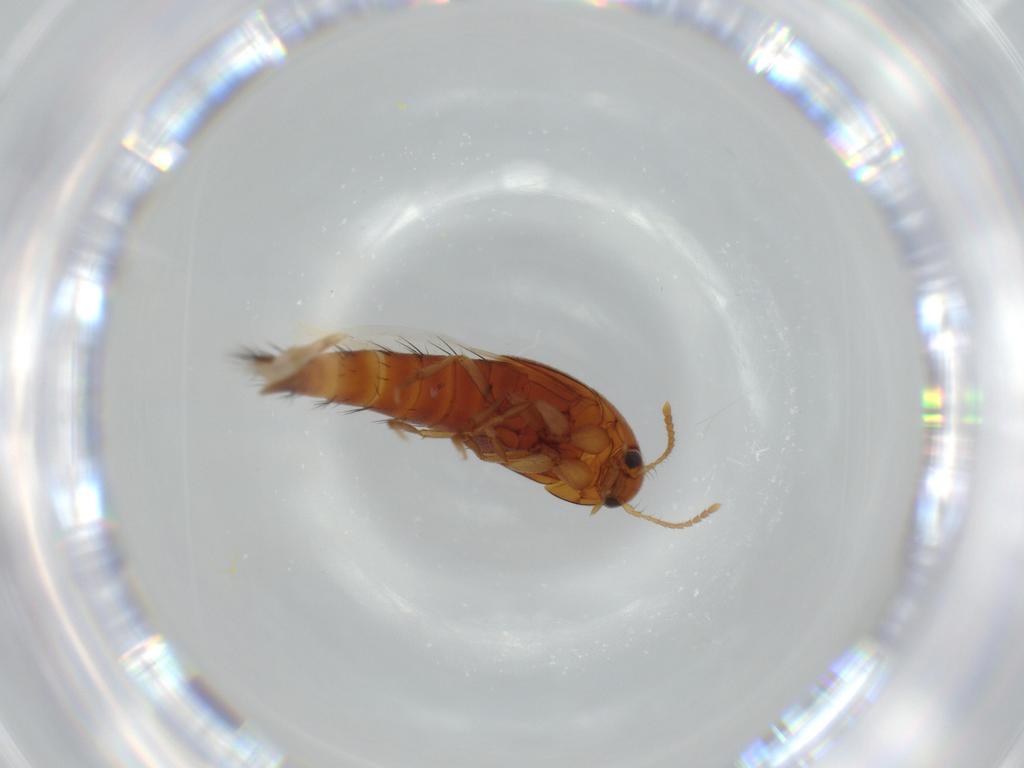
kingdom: Animalia
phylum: Arthropoda
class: Insecta
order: Coleoptera
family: Staphylinidae
